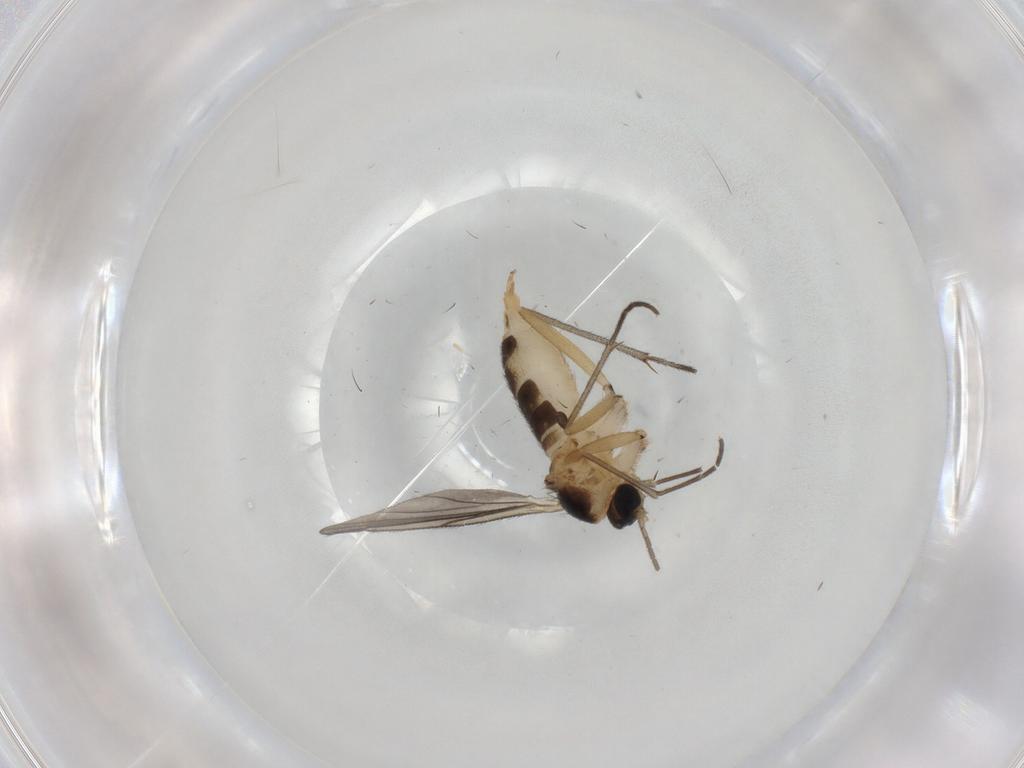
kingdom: Animalia
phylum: Arthropoda
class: Insecta
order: Diptera
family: Sciaridae
